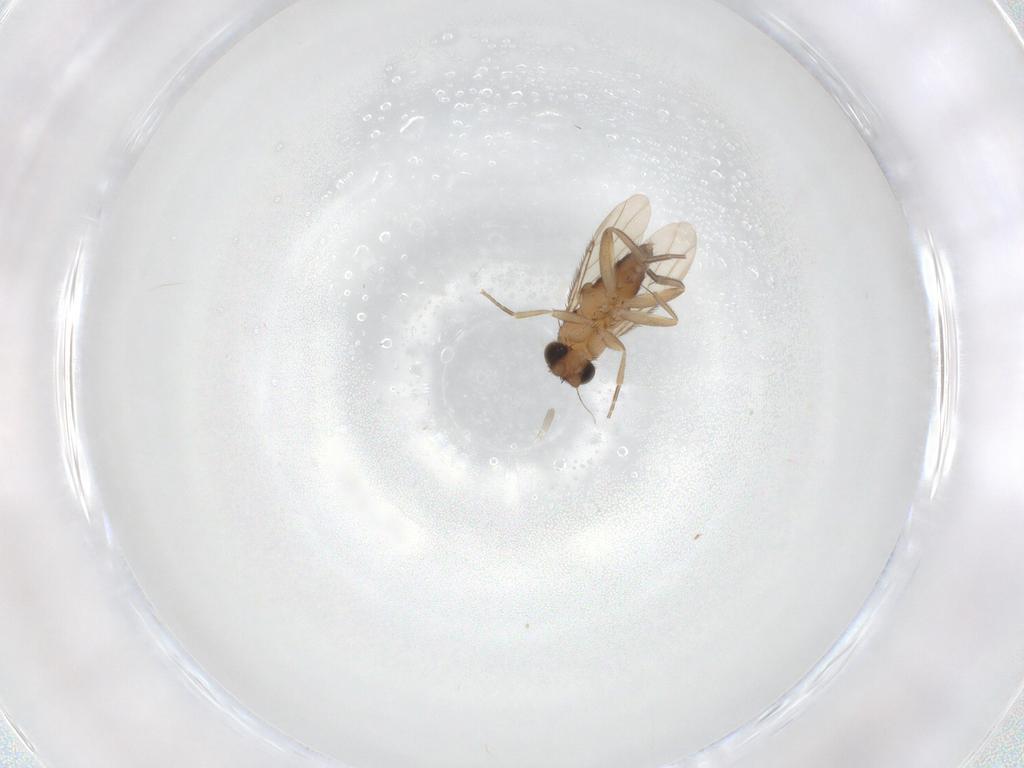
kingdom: Animalia
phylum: Arthropoda
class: Insecta
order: Diptera
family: Phoridae
